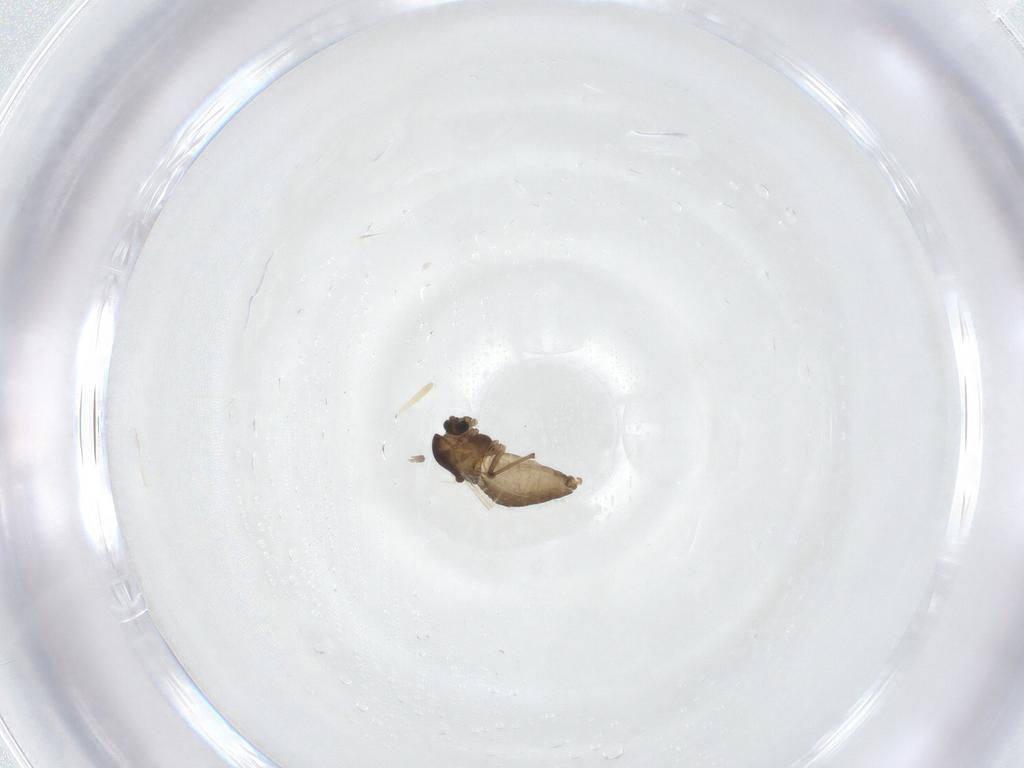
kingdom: Animalia
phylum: Arthropoda
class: Insecta
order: Diptera
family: Chironomidae
